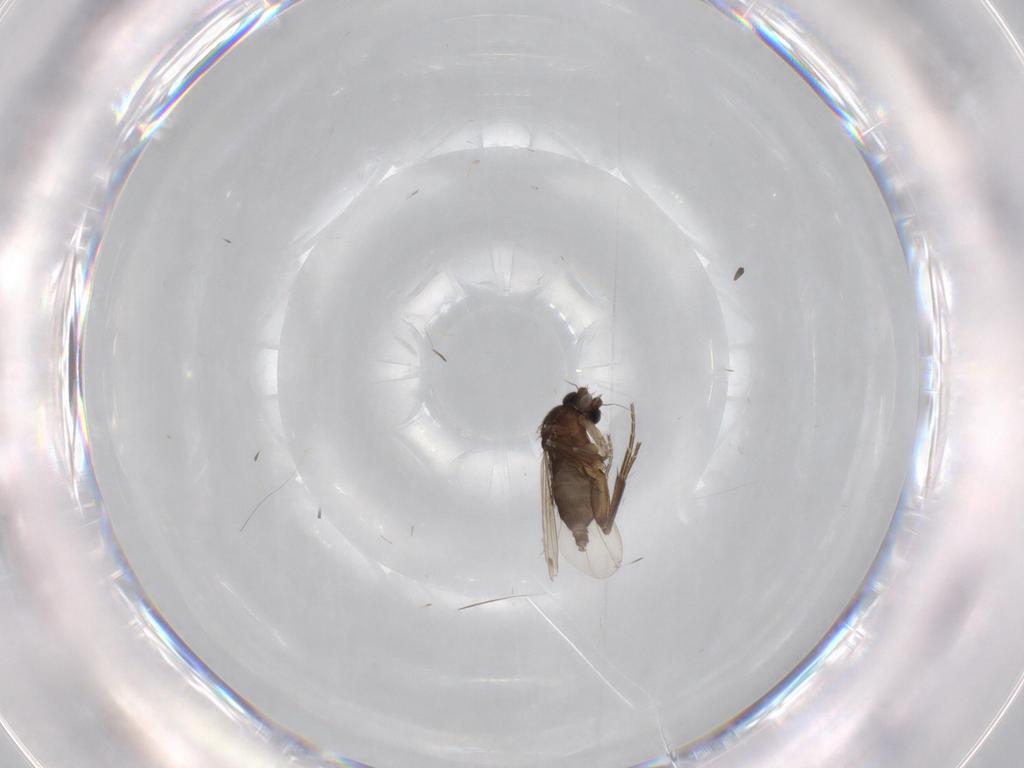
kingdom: Animalia
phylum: Arthropoda
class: Insecta
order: Diptera
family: Phoridae
